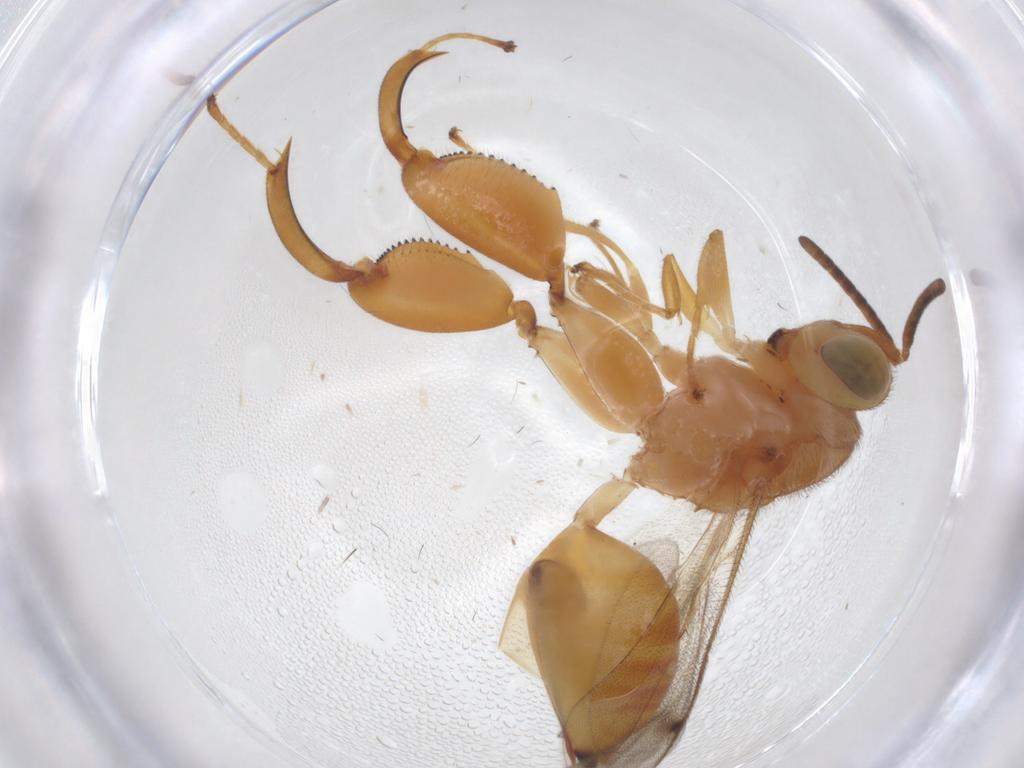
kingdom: Animalia
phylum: Arthropoda
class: Insecta
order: Hymenoptera
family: Chalcididae
